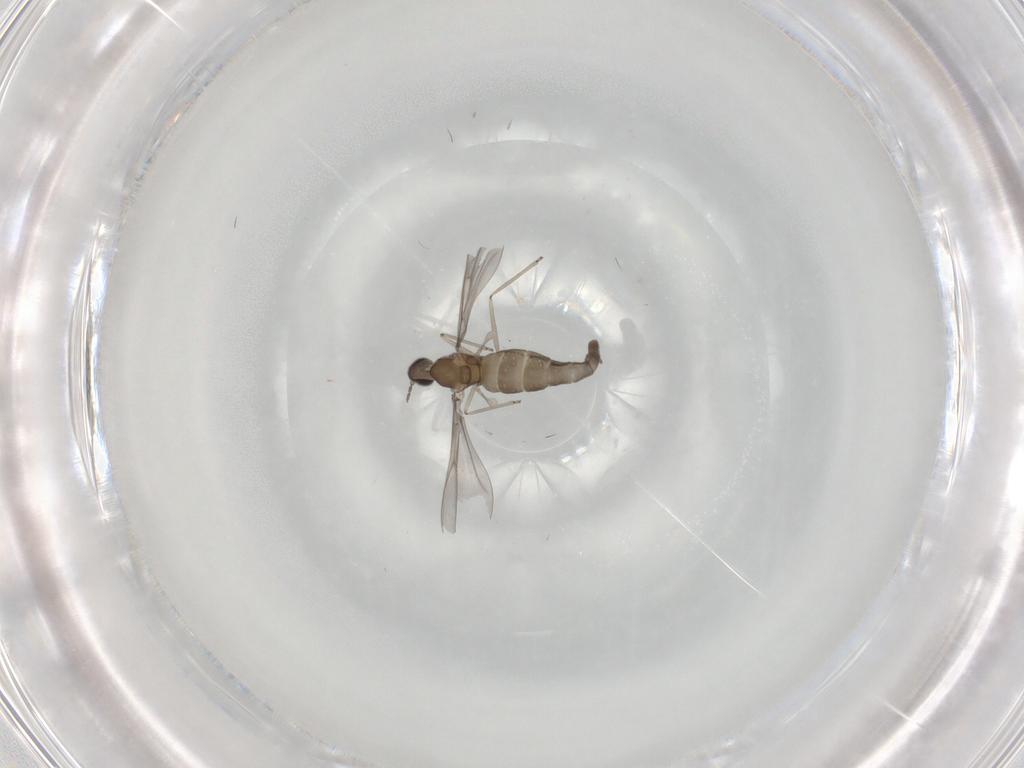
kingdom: Animalia
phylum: Arthropoda
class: Insecta
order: Diptera
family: Cecidomyiidae
